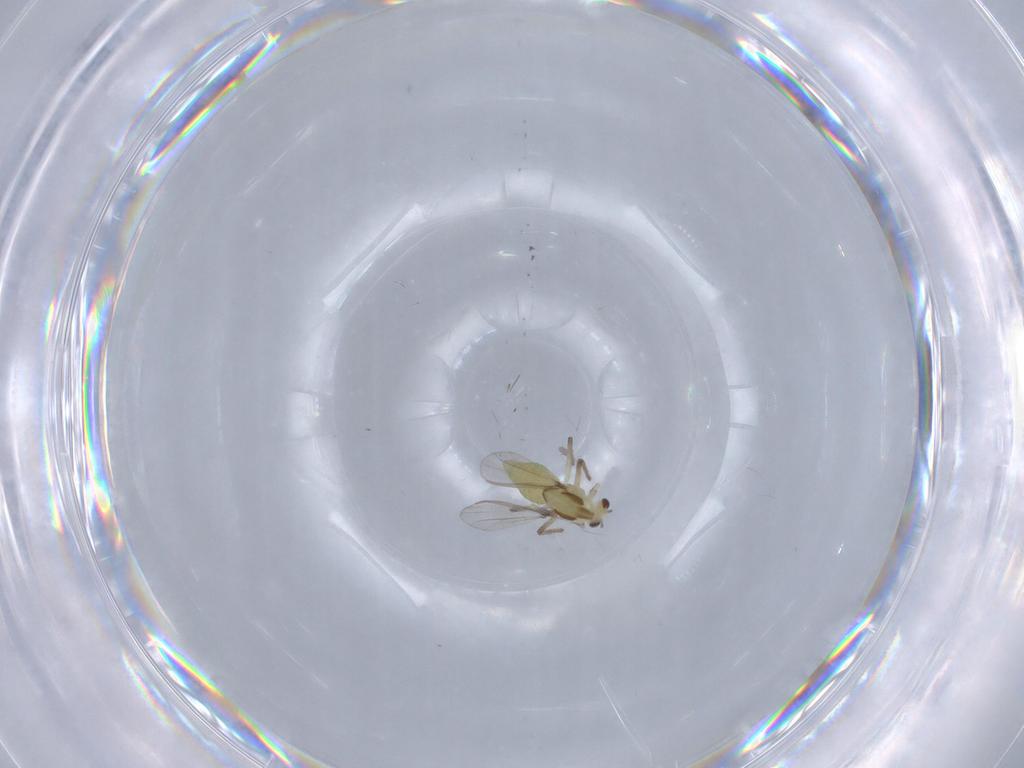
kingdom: Animalia
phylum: Arthropoda
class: Insecta
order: Diptera
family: Chironomidae
